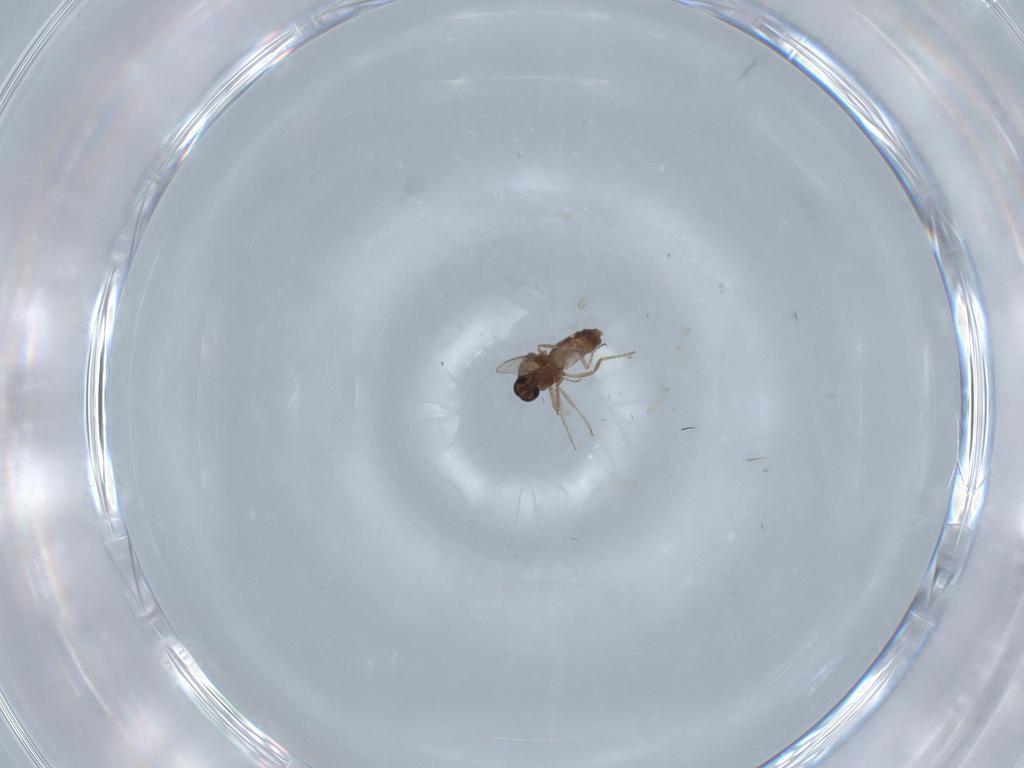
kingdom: Animalia
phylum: Arthropoda
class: Insecta
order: Diptera
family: Ceratopogonidae
